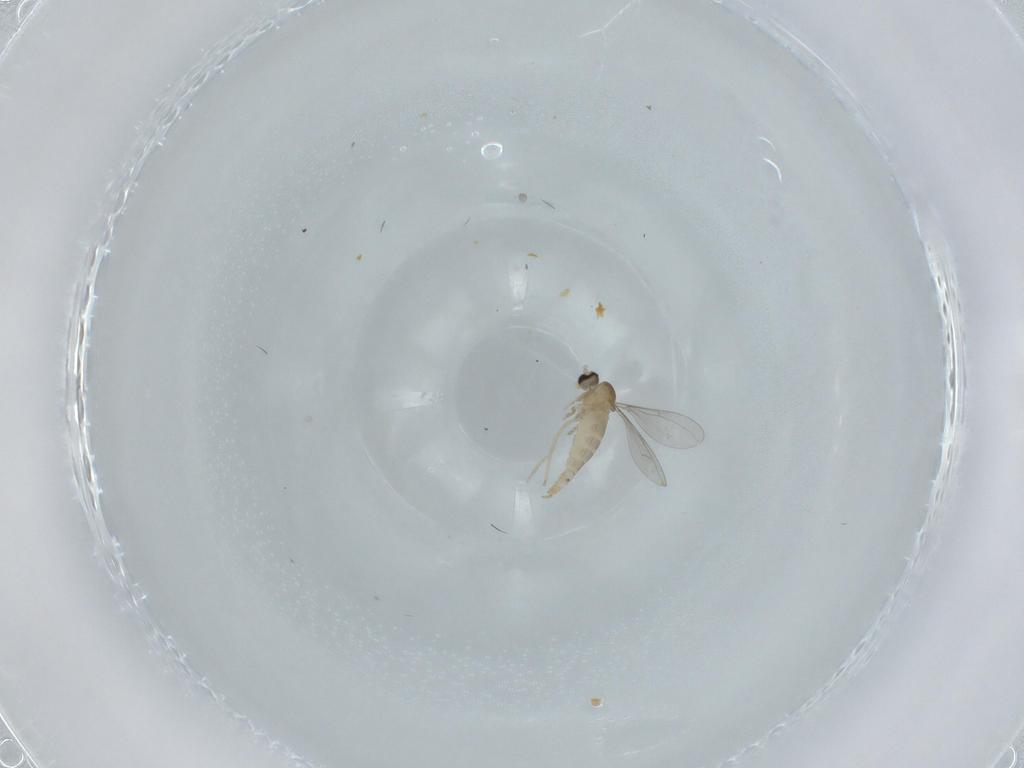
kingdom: Animalia
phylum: Arthropoda
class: Insecta
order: Diptera
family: Cecidomyiidae
